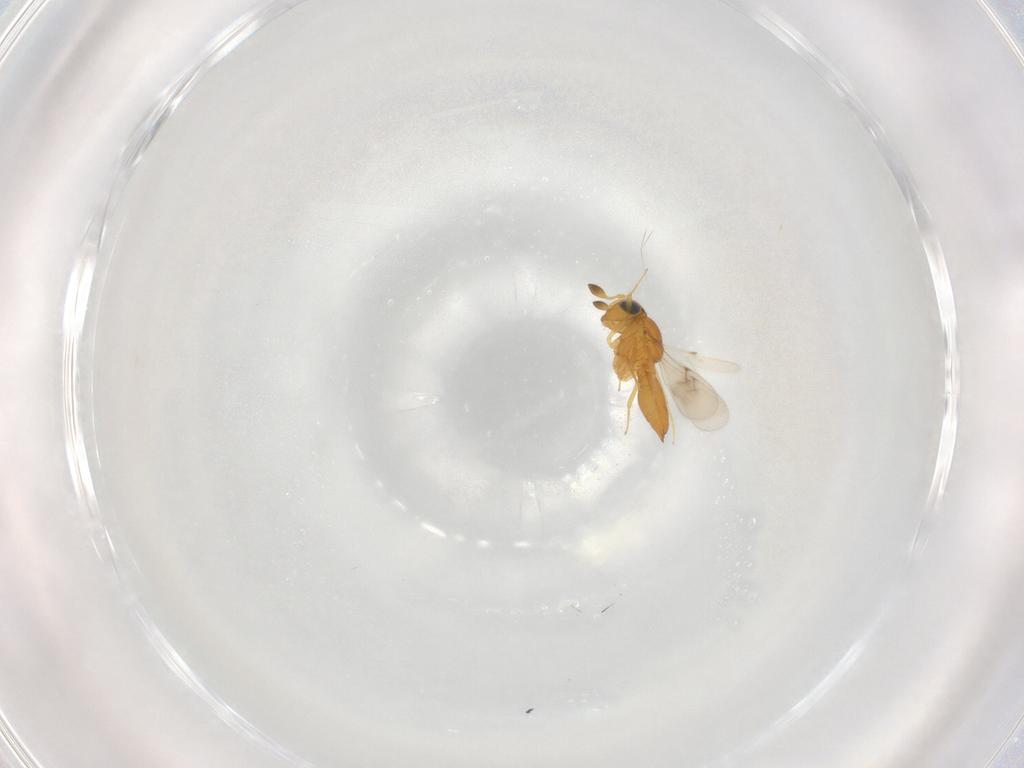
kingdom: Animalia
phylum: Arthropoda
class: Insecta
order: Hymenoptera
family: Scelionidae
